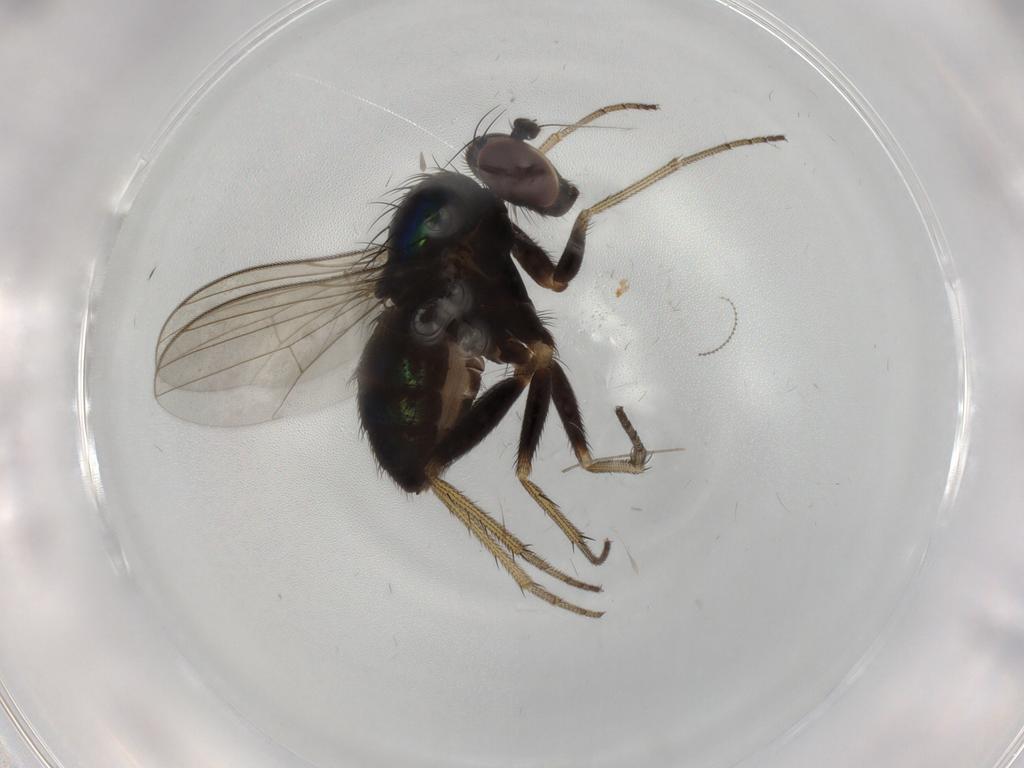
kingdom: Animalia
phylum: Arthropoda
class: Insecta
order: Diptera
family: Dolichopodidae
